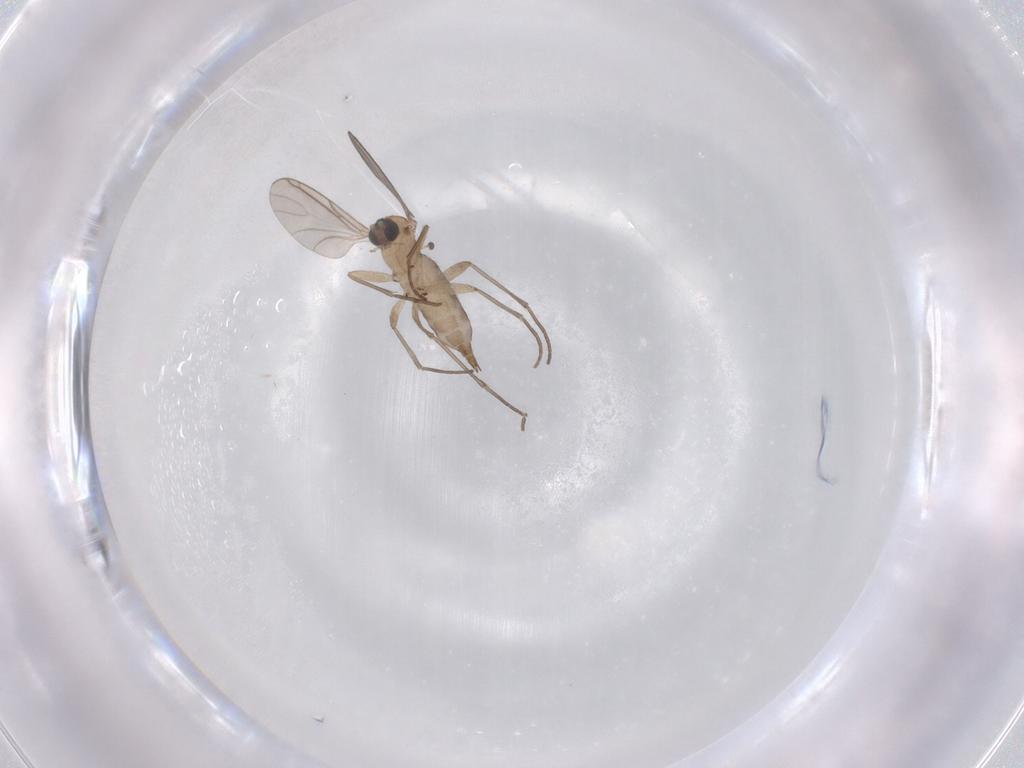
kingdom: Animalia
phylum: Arthropoda
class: Insecta
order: Diptera
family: Sciaridae
